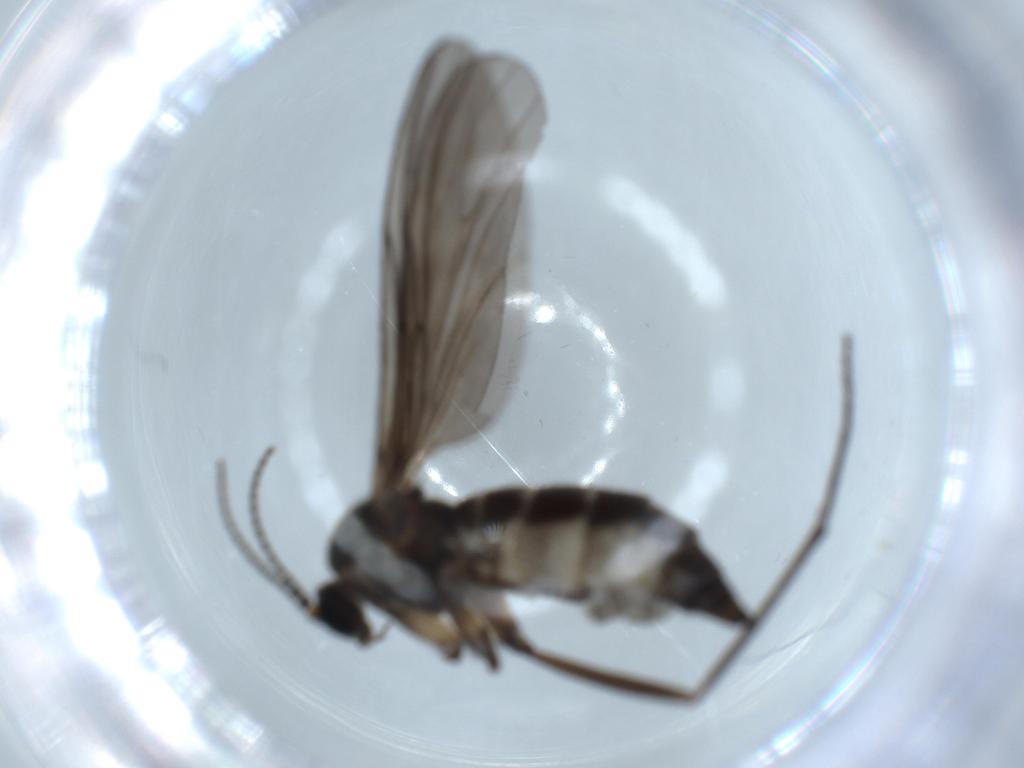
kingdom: Animalia
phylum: Arthropoda
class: Insecta
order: Diptera
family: Sciaridae
